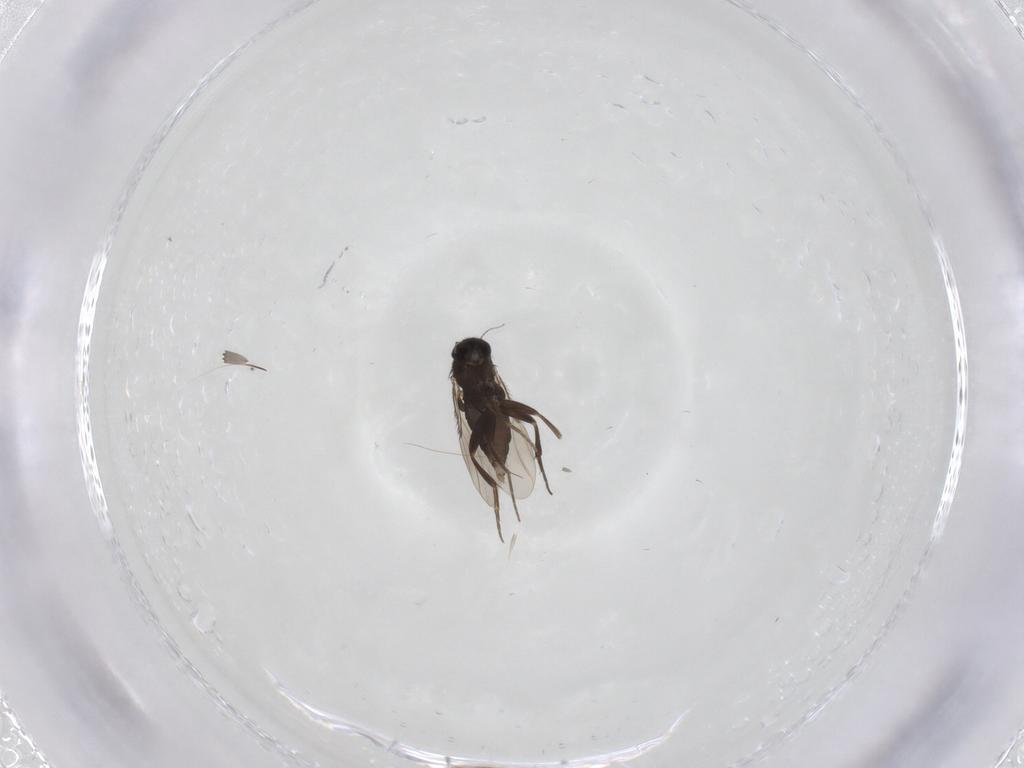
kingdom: Animalia
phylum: Arthropoda
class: Insecta
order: Diptera
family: Phoridae
